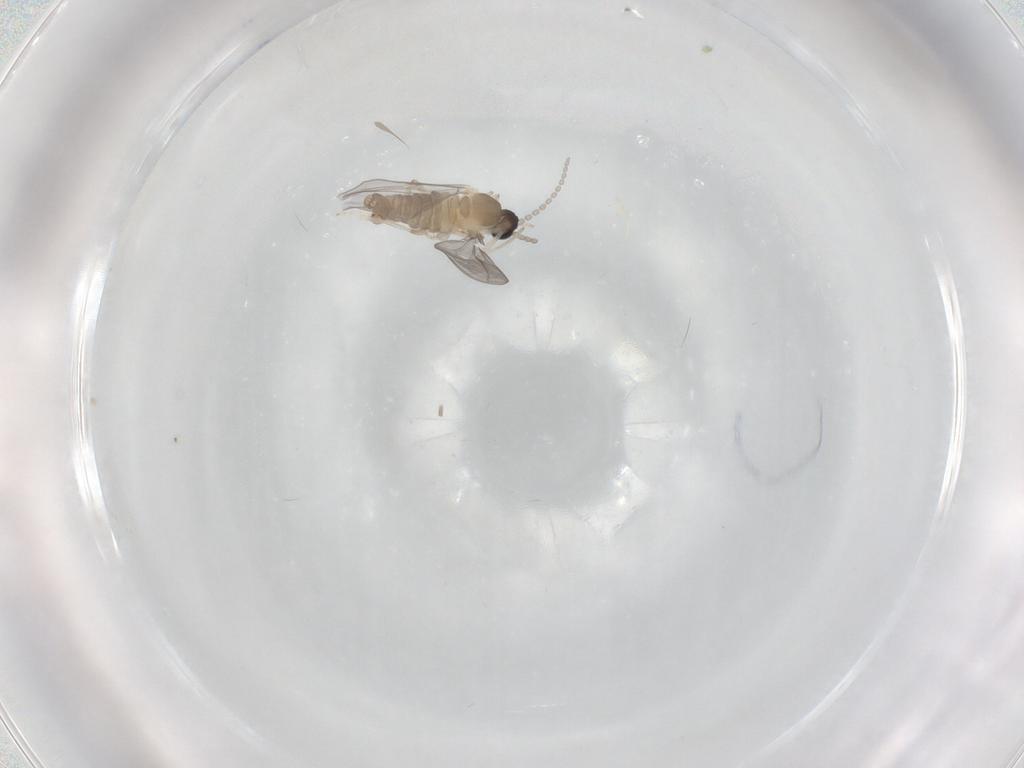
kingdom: Animalia
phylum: Arthropoda
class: Insecta
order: Diptera
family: Cecidomyiidae
